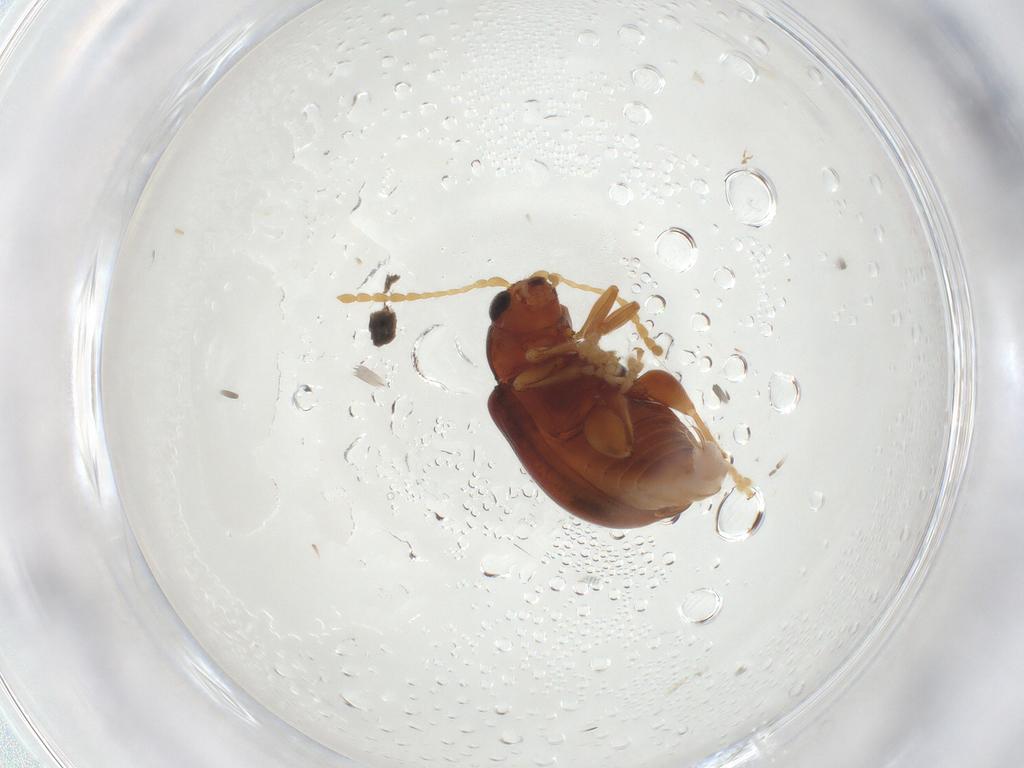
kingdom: Animalia
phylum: Arthropoda
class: Insecta
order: Coleoptera
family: Chrysomelidae
